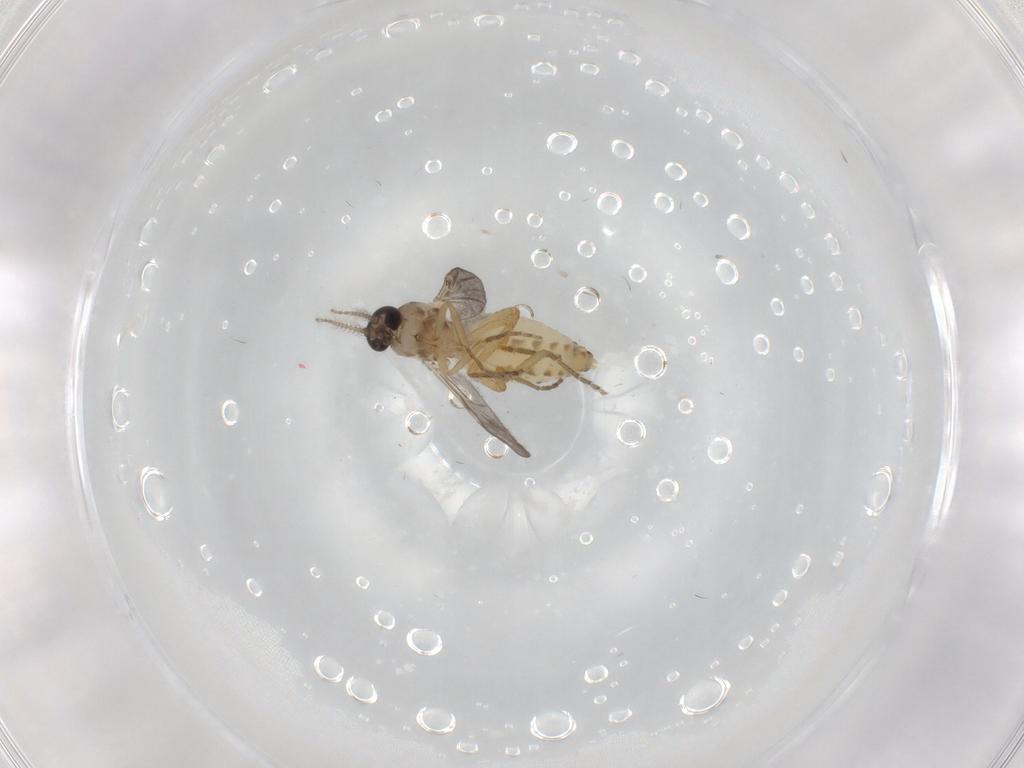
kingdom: Animalia
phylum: Arthropoda
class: Insecta
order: Diptera
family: Ceratopogonidae
